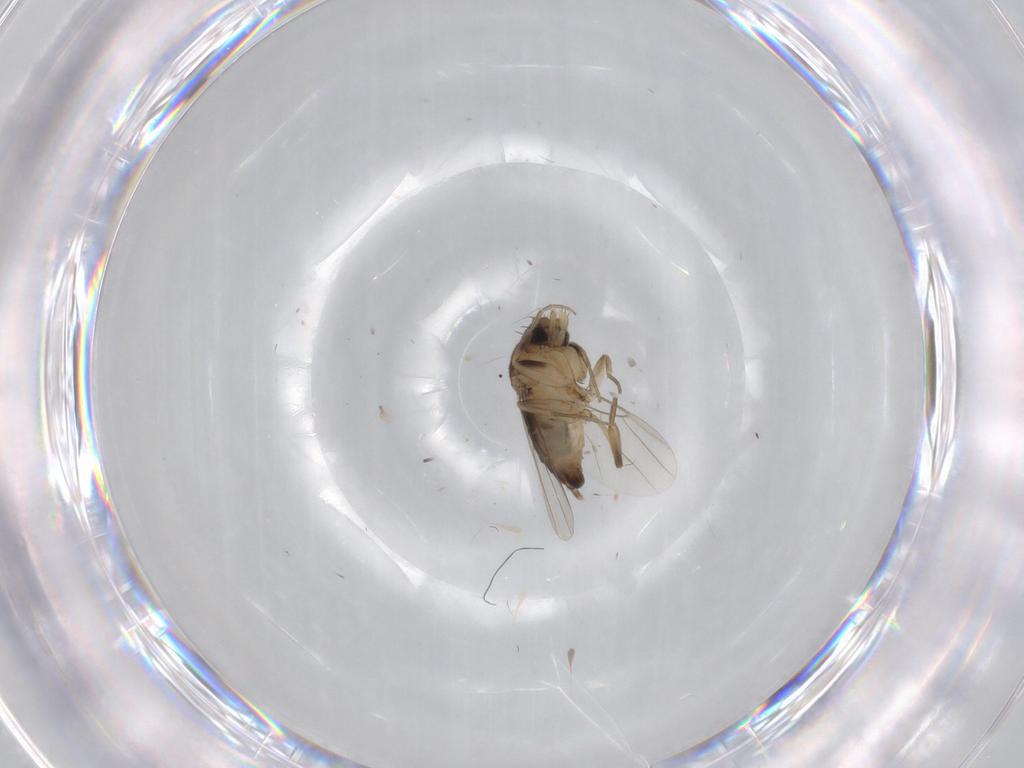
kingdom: Animalia
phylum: Arthropoda
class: Insecta
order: Diptera
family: Phoridae
